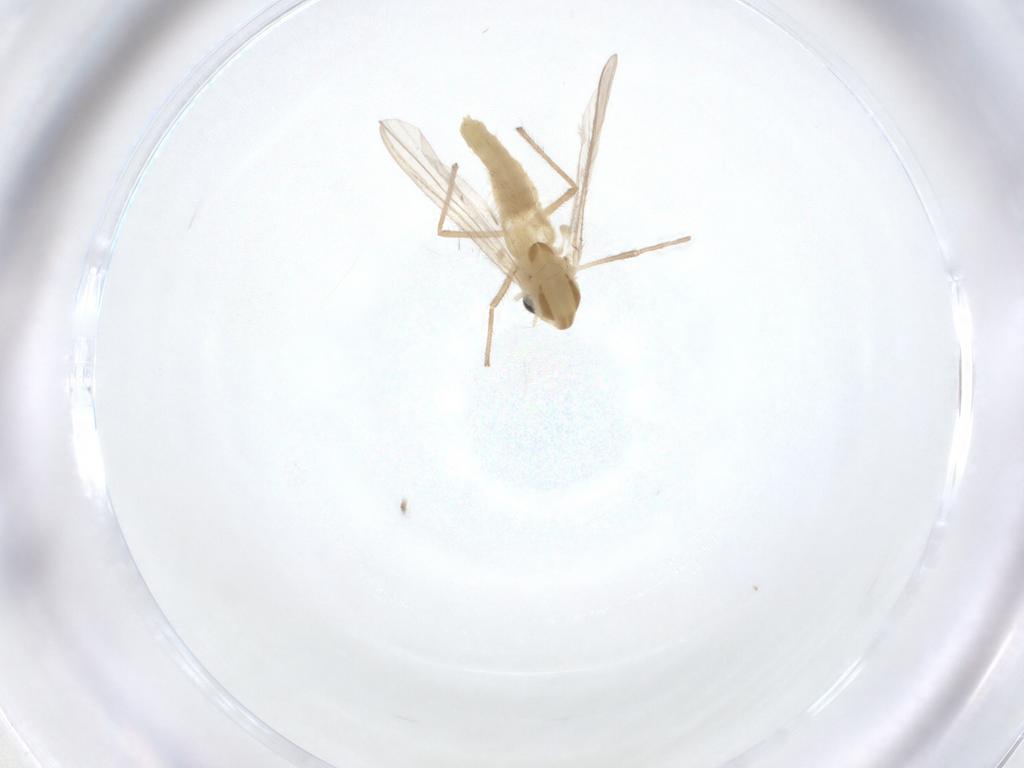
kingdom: Animalia
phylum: Arthropoda
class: Insecta
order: Diptera
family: Chironomidae
